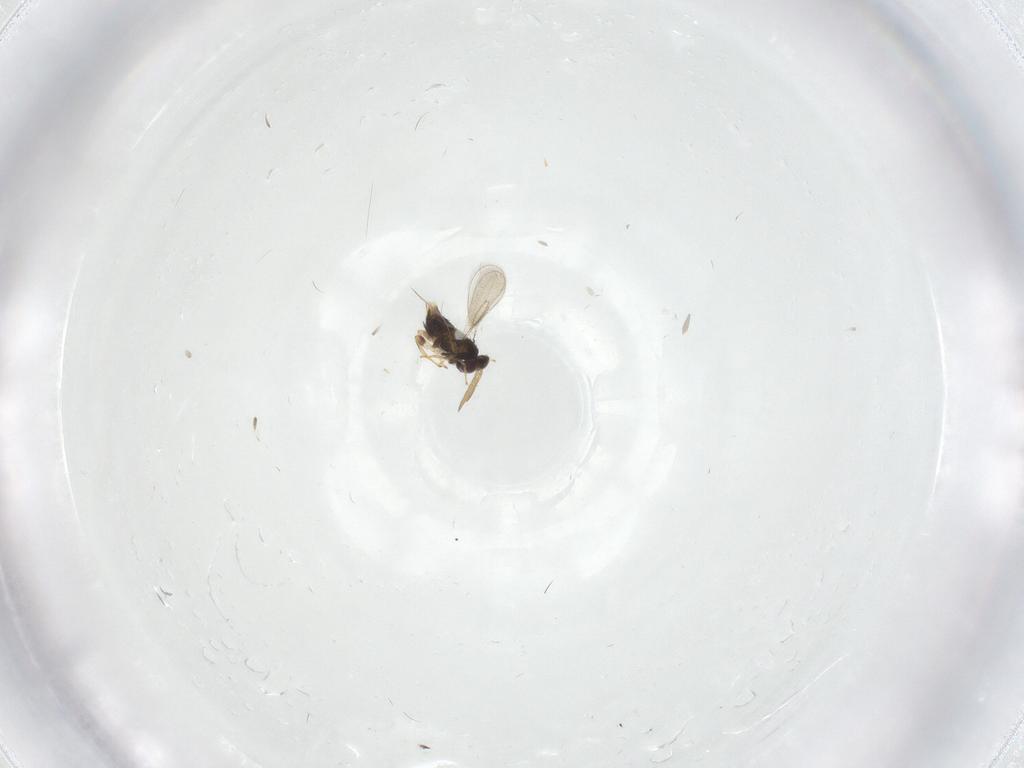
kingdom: Animalia
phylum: Arthropoda
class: Insecta
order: Hymenoptera
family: Aphelinidae
